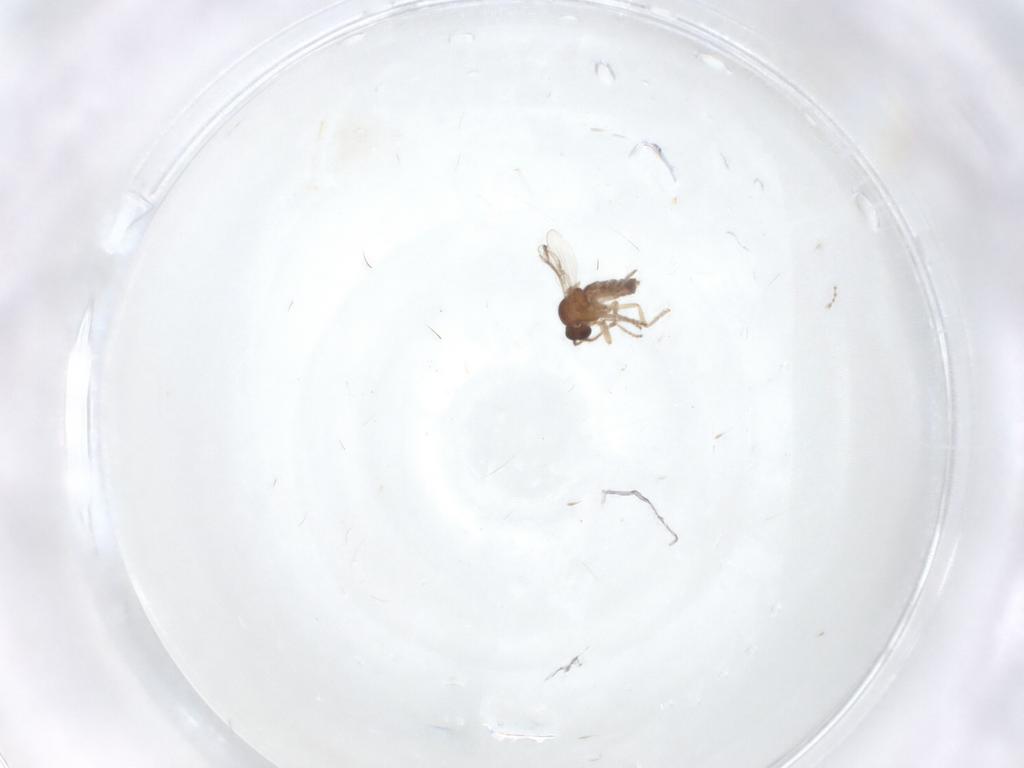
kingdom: Animalia
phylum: Arthropoda
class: Insecta
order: Diptera
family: Ceratopogonidae
